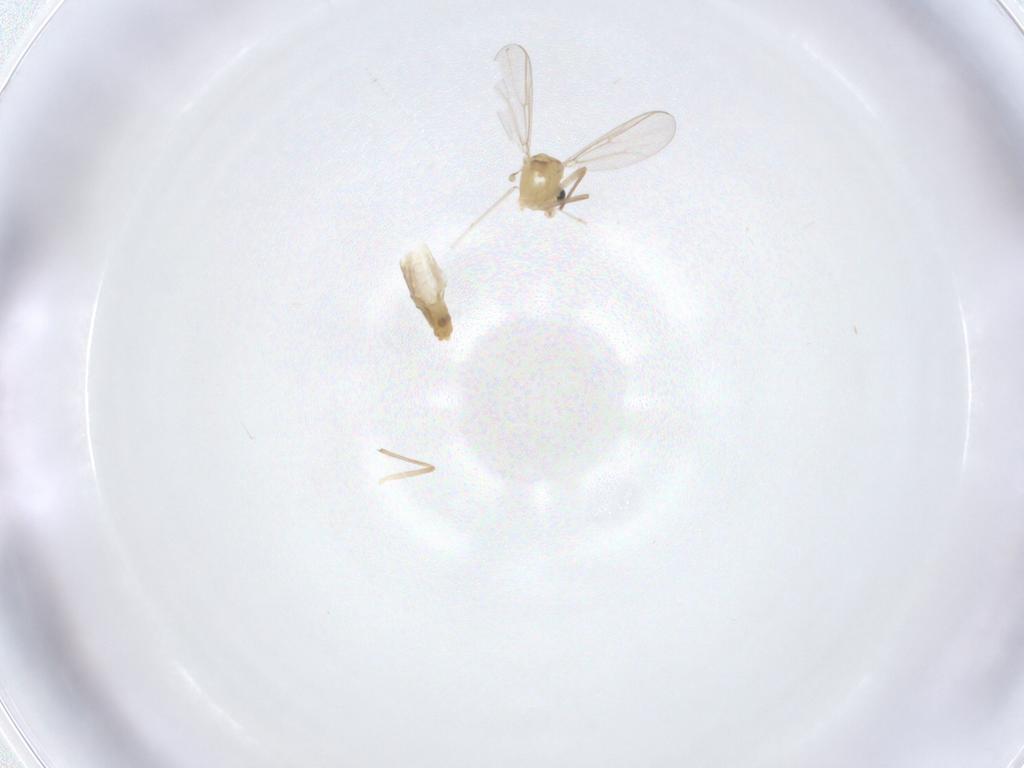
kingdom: Animalia
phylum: Arthropoda
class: Insecta
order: Diptera
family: Chironomidae
